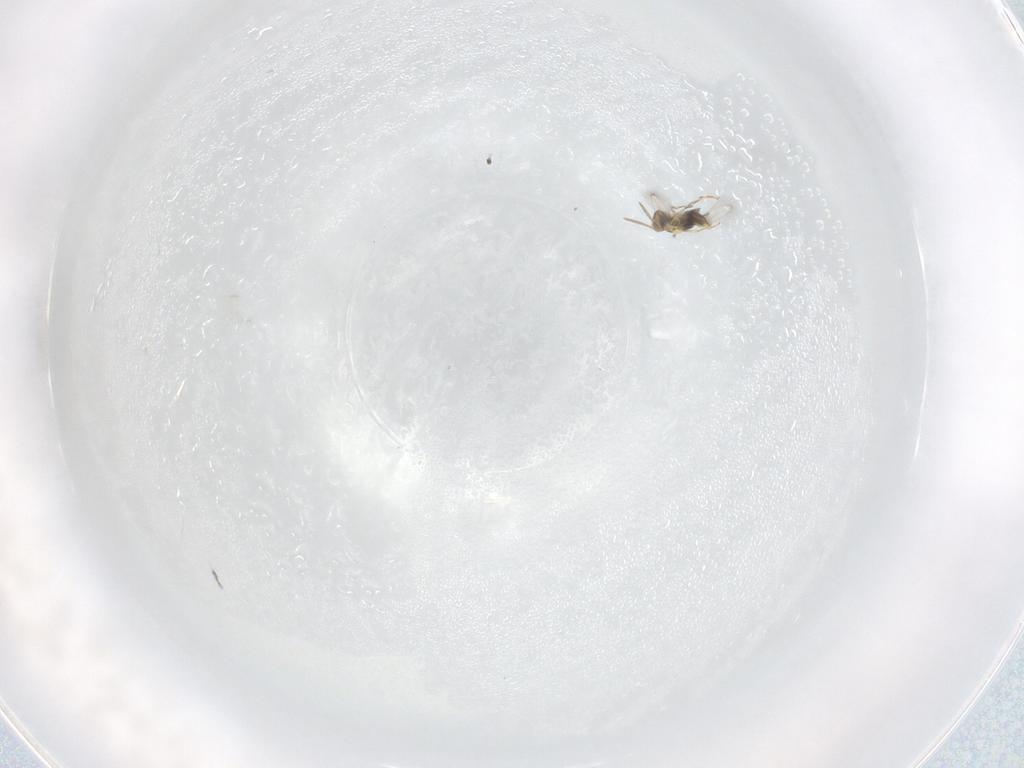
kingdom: Animalia
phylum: Arthropoda
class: Insecta
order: Hymenoptera
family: Aphelinidae
